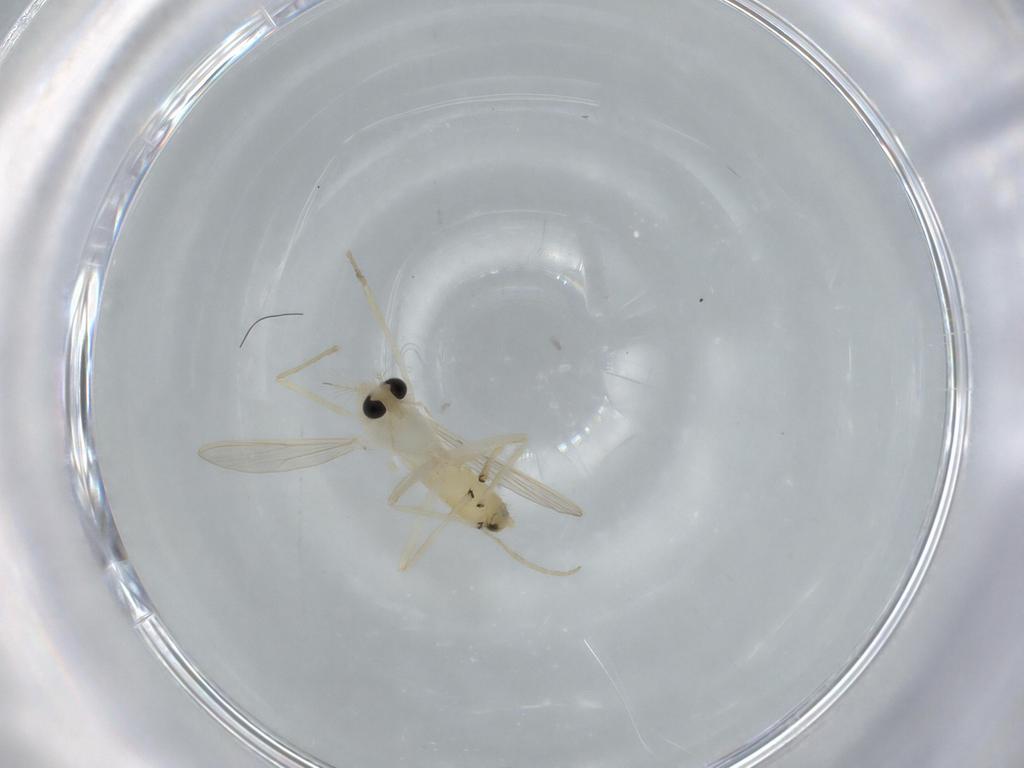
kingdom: Animalia
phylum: Arthropoda
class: Insecta
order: Diptera
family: Chironomidae
